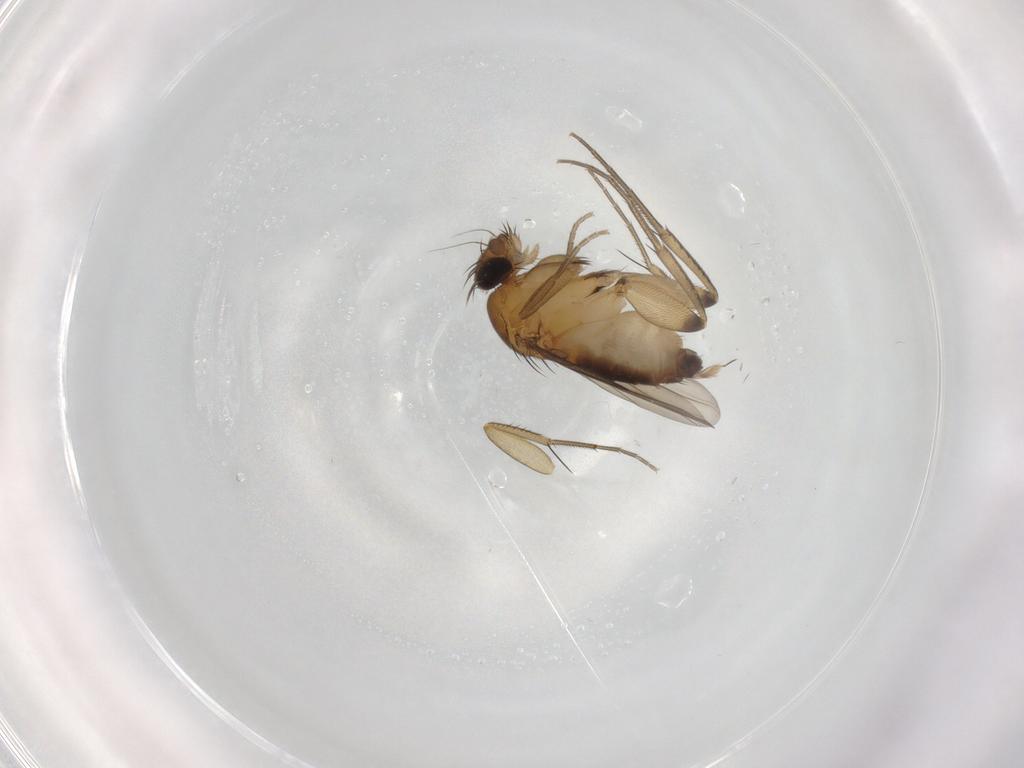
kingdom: Animalia
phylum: Arthropoda
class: Insecta
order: Diptera
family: Phoridae
